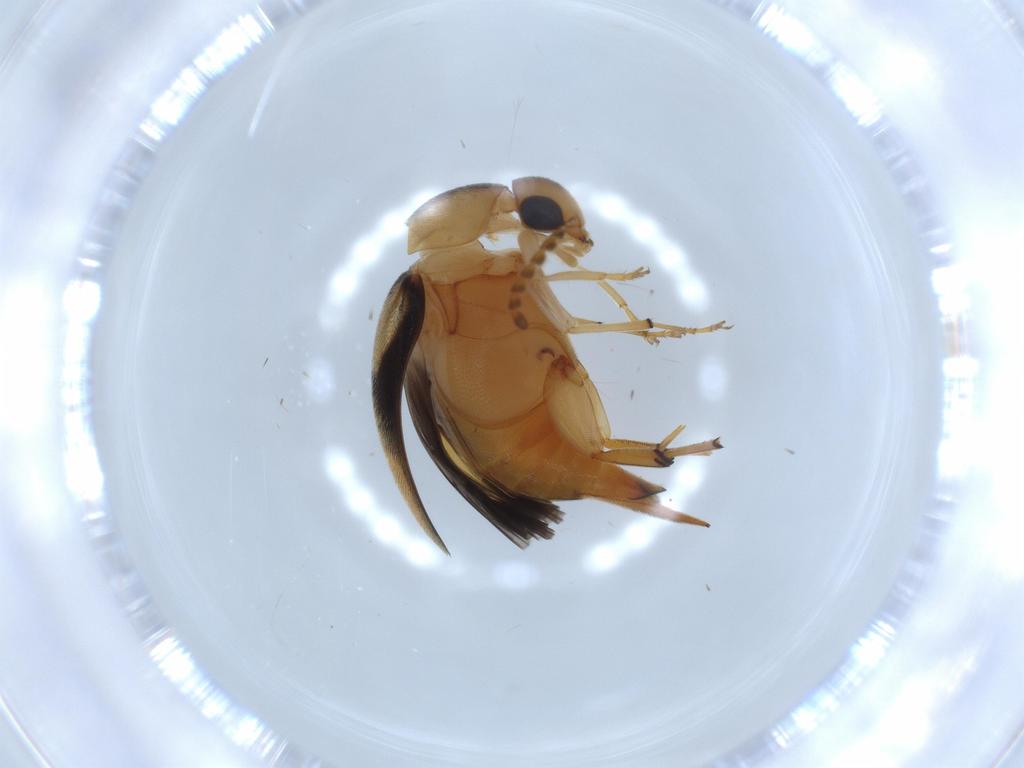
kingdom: Animalia
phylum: Arthropoda
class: Insecta
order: Coleoptera
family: Mordellidae
